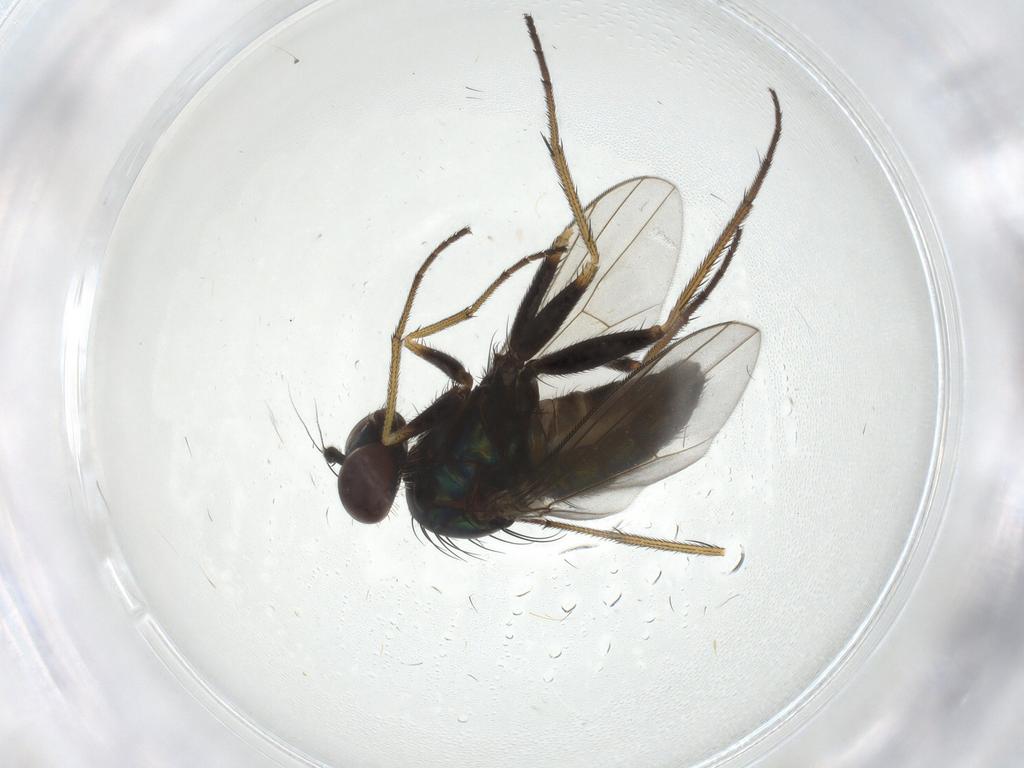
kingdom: Animalia
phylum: Arthropoda
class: Insecta
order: Diptera
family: Dolichopodidae
